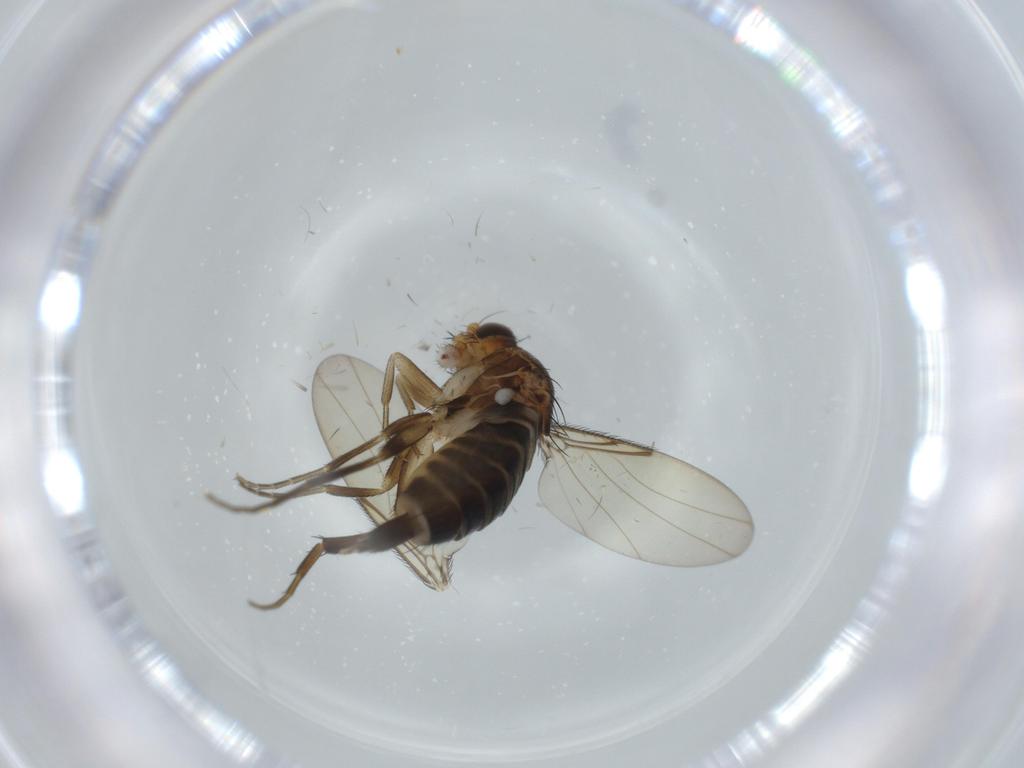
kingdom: Animalia
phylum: Arthropoda
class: Insecta
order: Diptera
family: Phoridae
